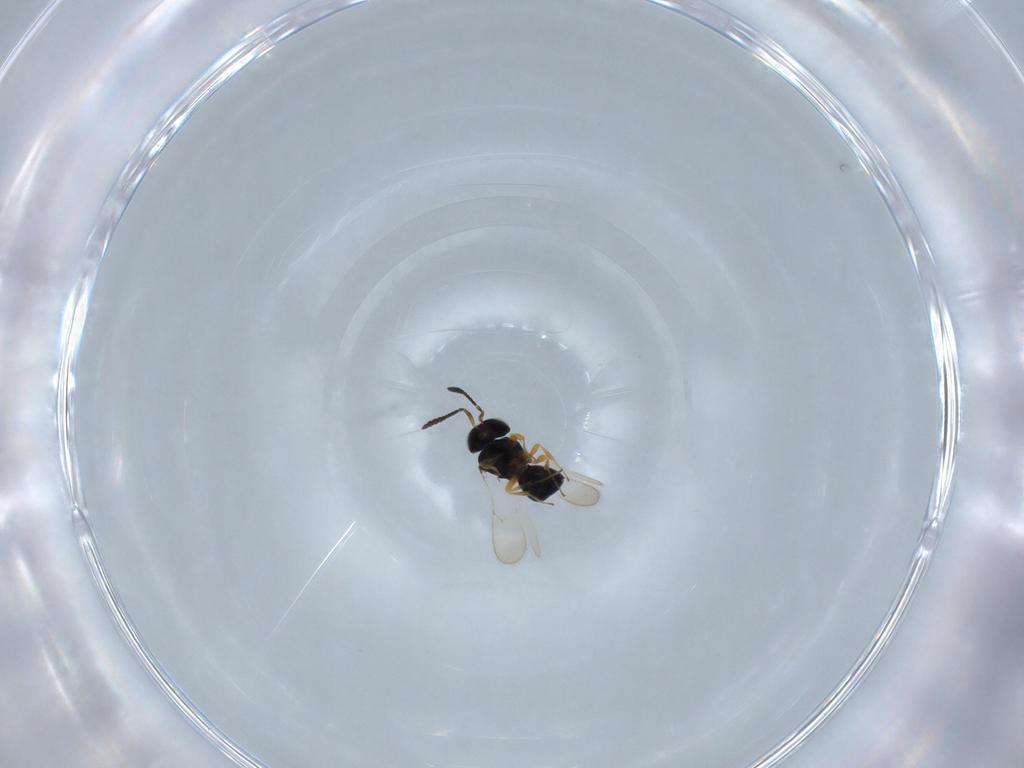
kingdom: Animalia
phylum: Arthropoda
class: Insecta
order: Hymenoptera
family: Scelionidae
